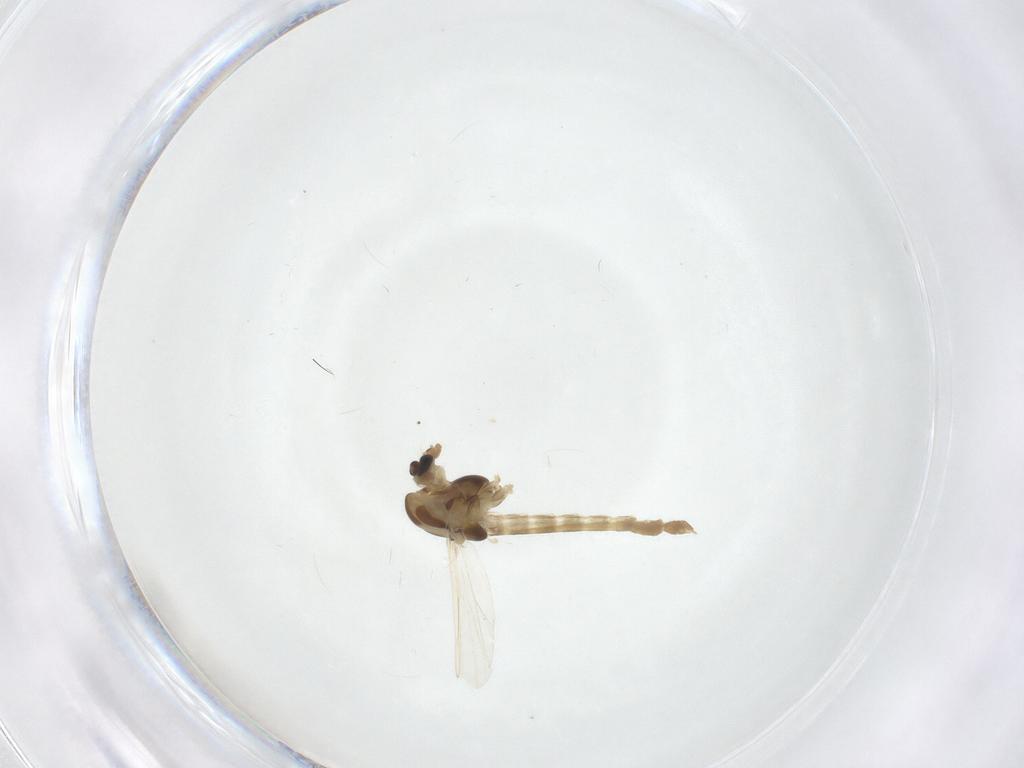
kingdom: Animalia
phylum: Arthropoda
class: Insecta
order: Diptera
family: Chironomidae
